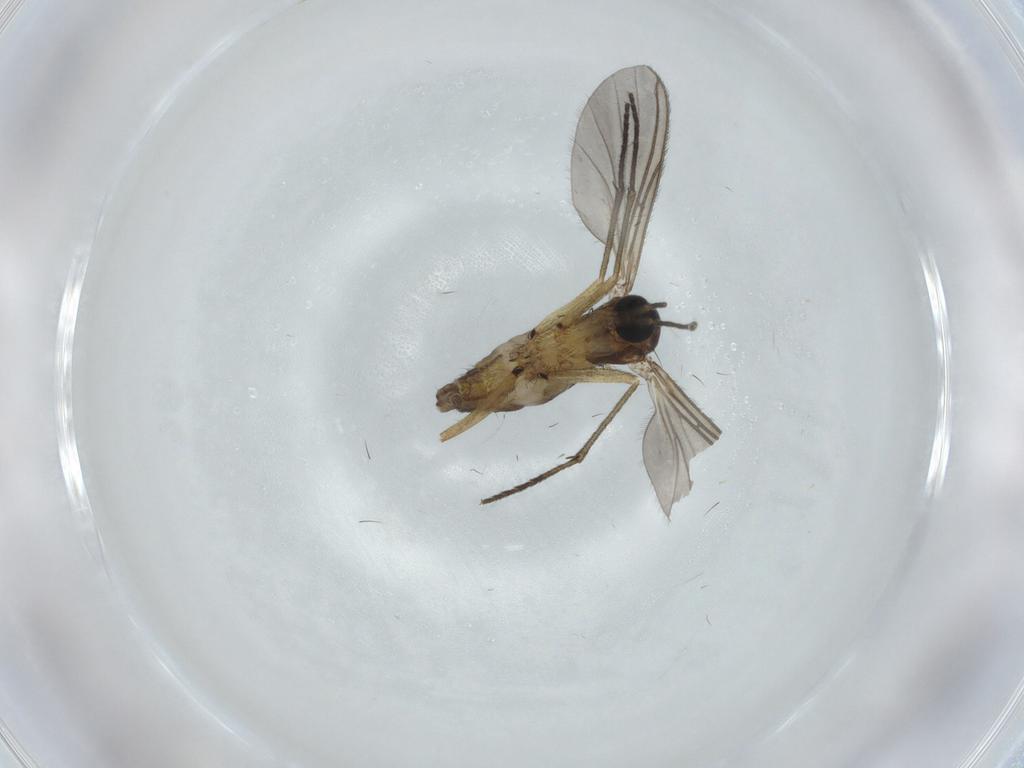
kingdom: Animalia
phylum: Arthropoda
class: Insecta
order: Diptera
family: Sciaridae
